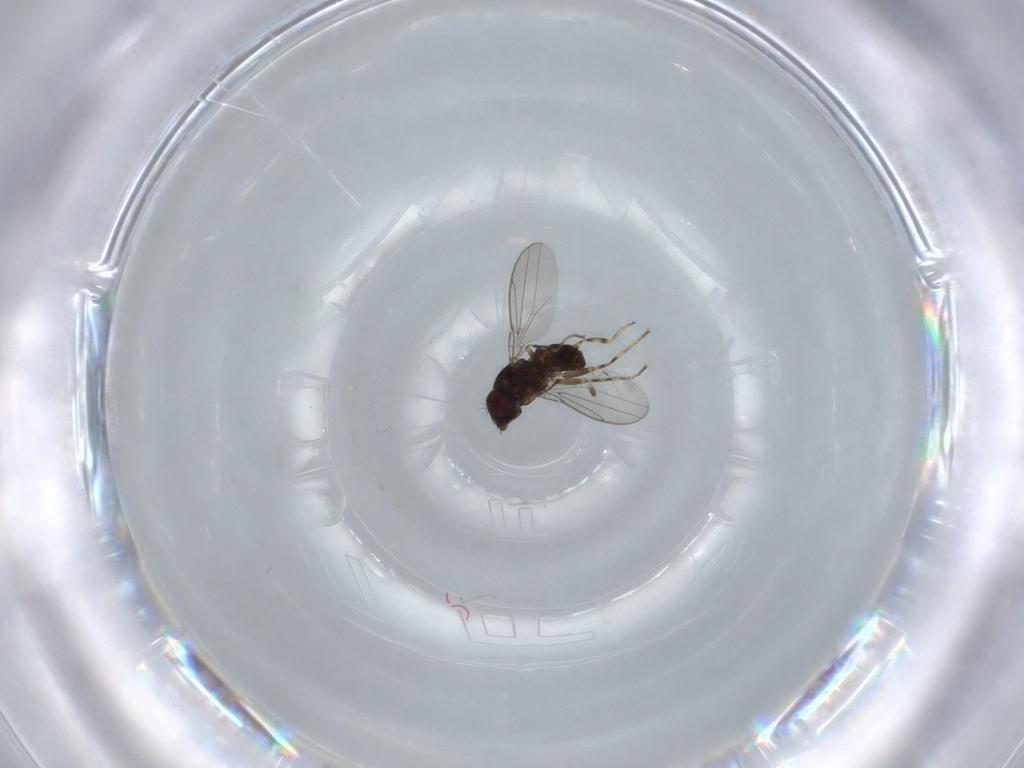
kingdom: Animalia
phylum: Arthropoda
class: Insecta
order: Diptera
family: Chloropidae
